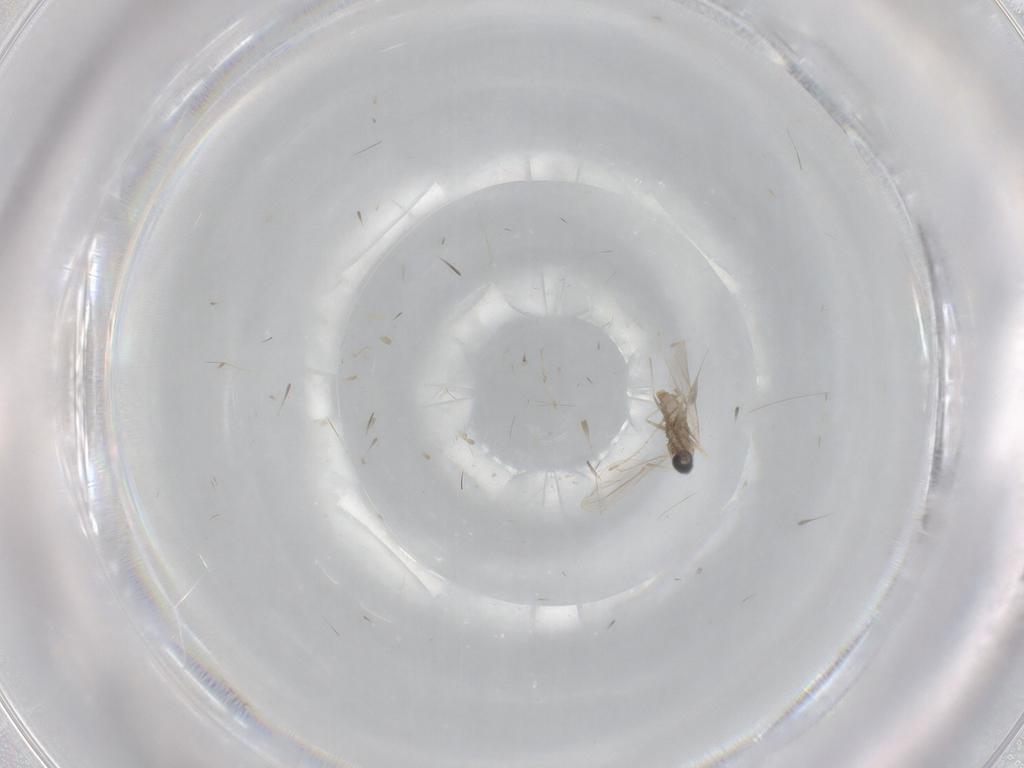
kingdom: Animalia
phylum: Arthropoda
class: Insecta
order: Diptera
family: Cecidomyiidae
